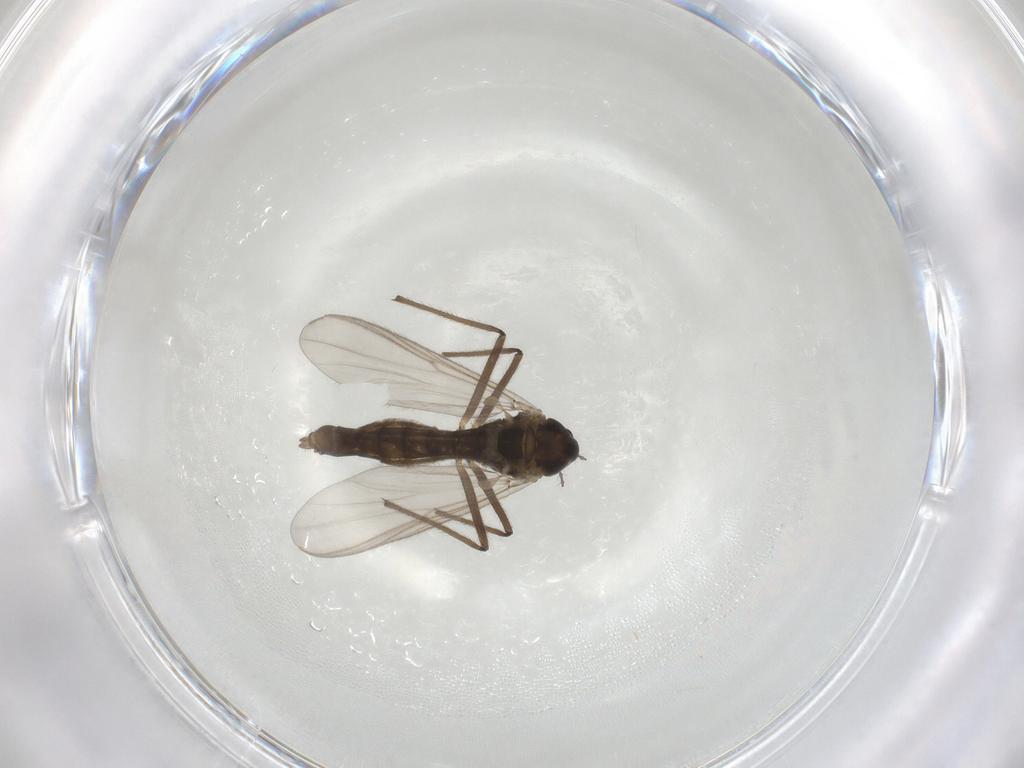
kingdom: Animalia
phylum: Arthropoda
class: Insecta
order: Diptera
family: Chironomidae
